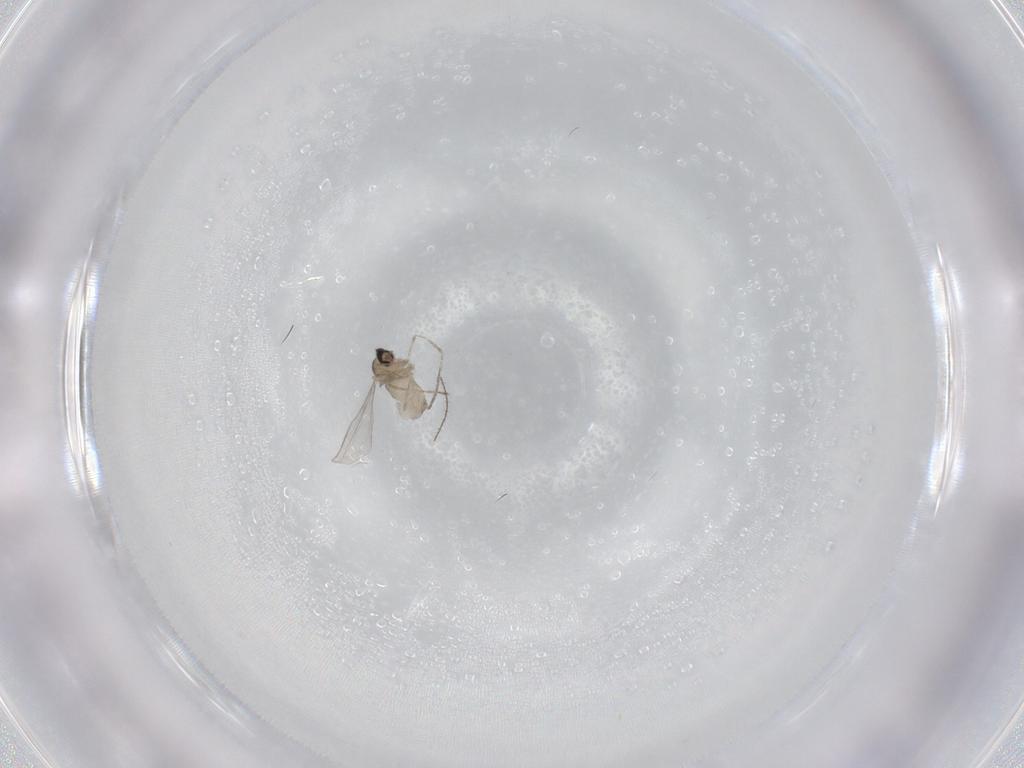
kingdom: Animalia
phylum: Arthropoda
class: Insecta
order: Diptera
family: Cecidomyiidae
